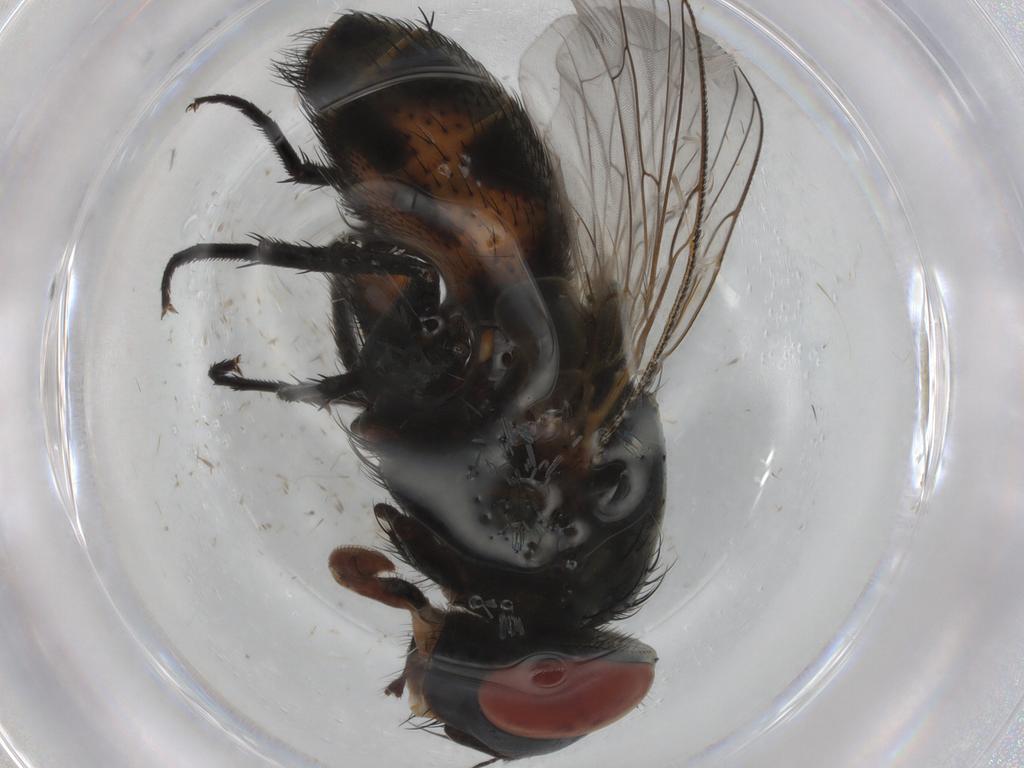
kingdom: Animalia
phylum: Arthropoda
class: Insecta
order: Diptera
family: Sarcophagidae
